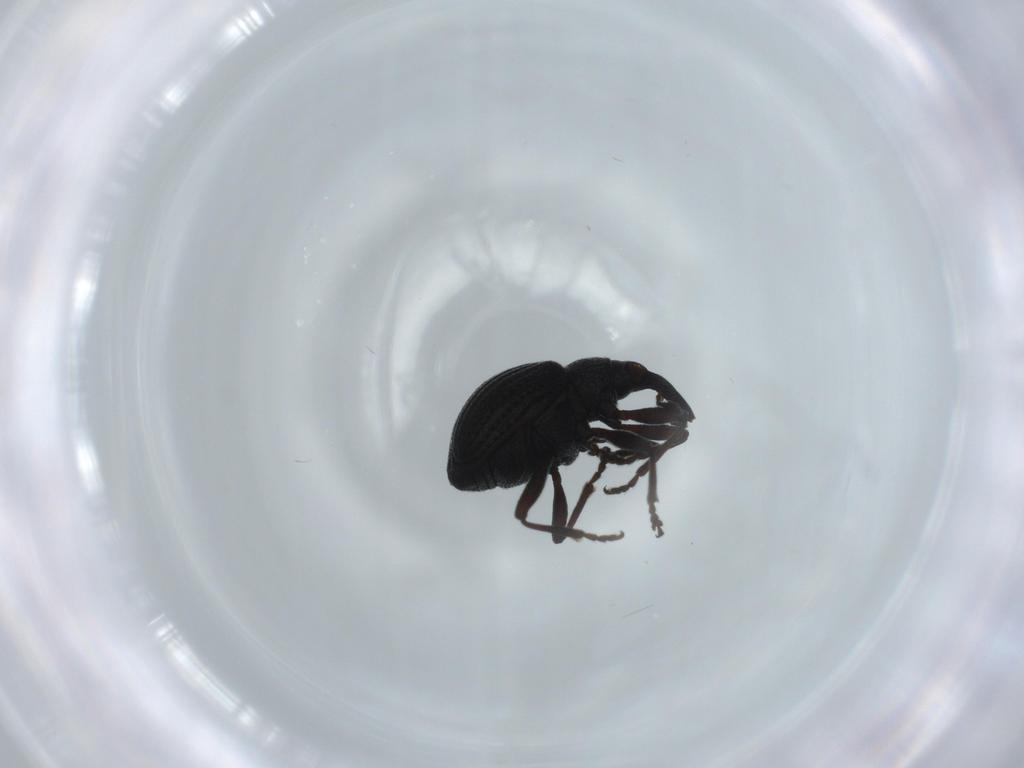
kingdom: Animalia
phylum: Arthropoda
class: Insecta
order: Coleoptera
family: Brentidae
